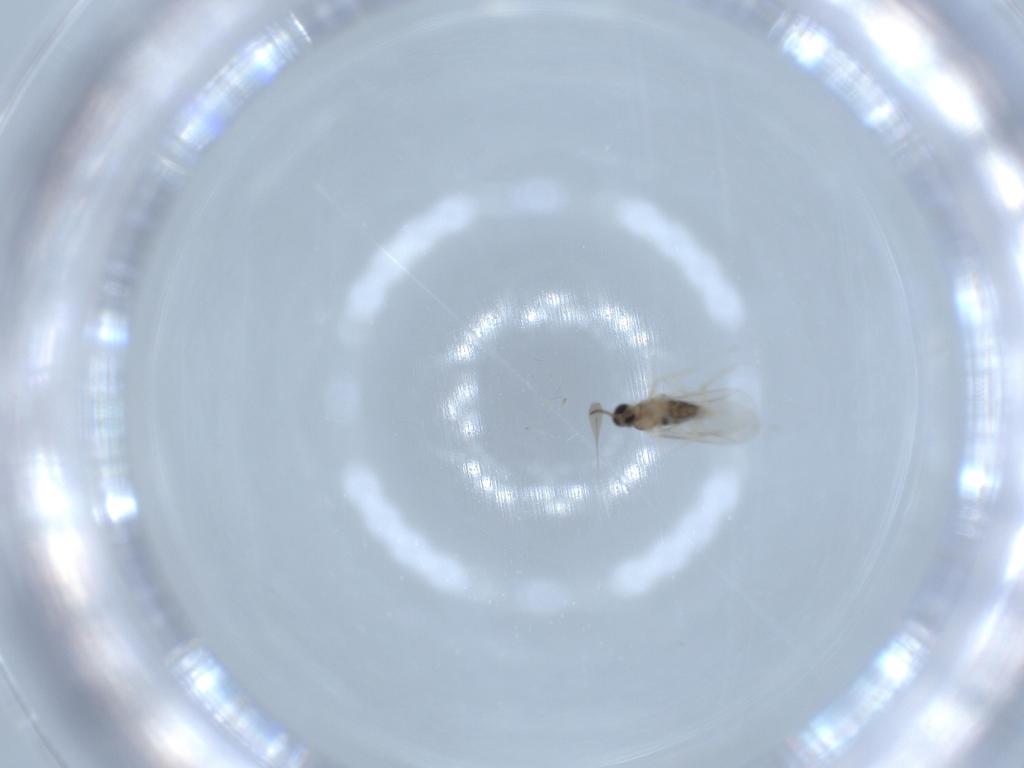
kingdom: Animalia
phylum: Arthropoda
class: Insecta
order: Diptera
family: Cecidomyiidae
